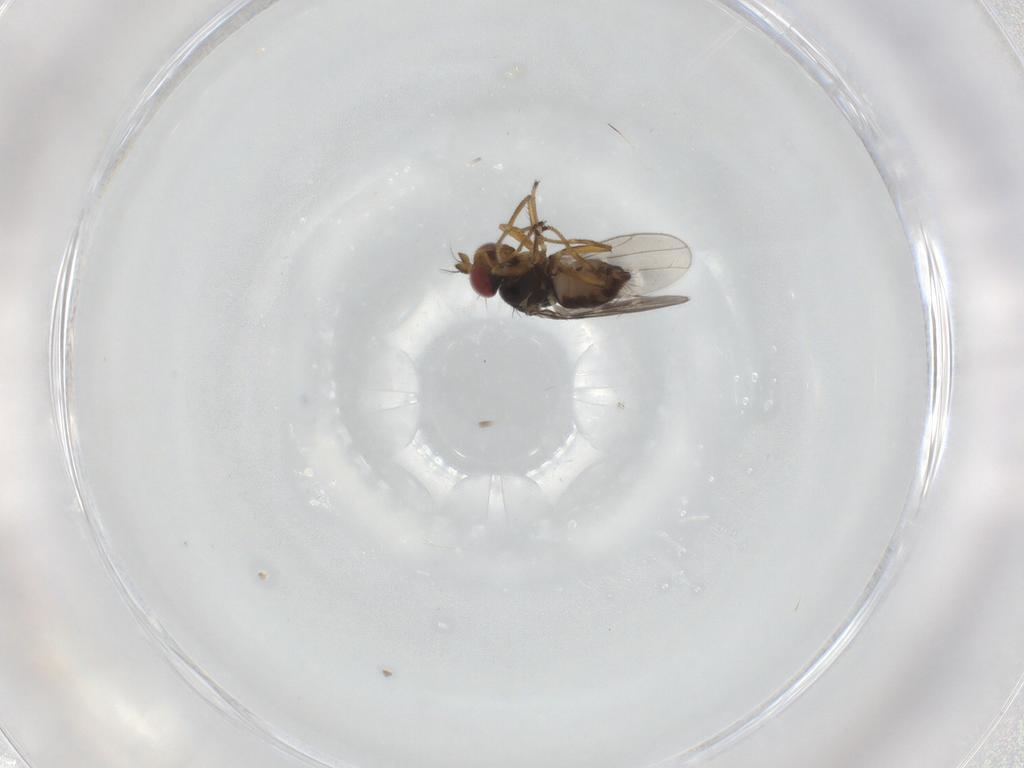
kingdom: Animalia
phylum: Arthropoda
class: Insecta
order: Diptera
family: Ephydridae
